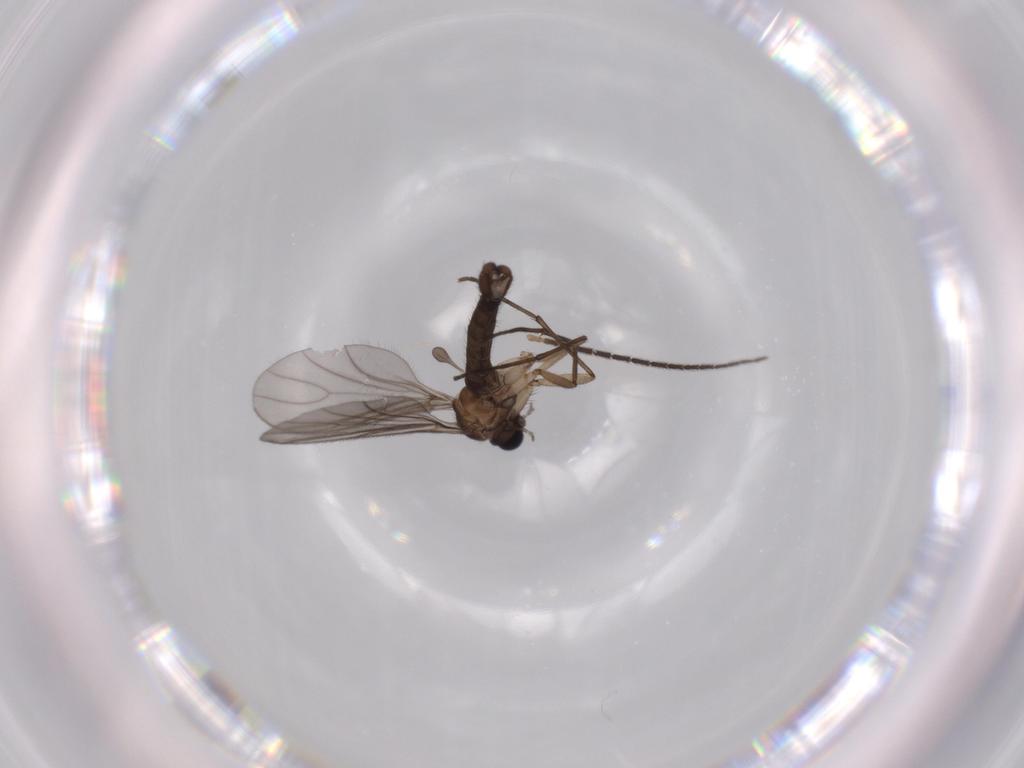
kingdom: Animalia
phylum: Arthropoda
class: Insecta
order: Diptera
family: Sciaridae
